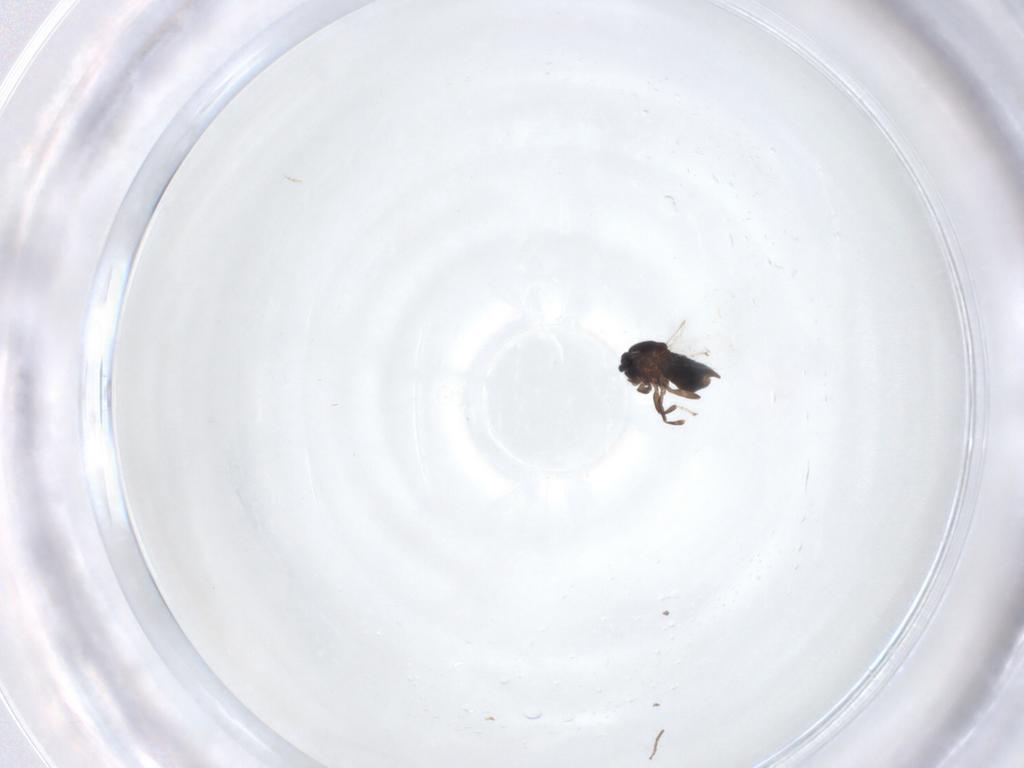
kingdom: Animalia
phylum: Arthropoda
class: Insecta
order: Diptera
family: Scatopsidae
